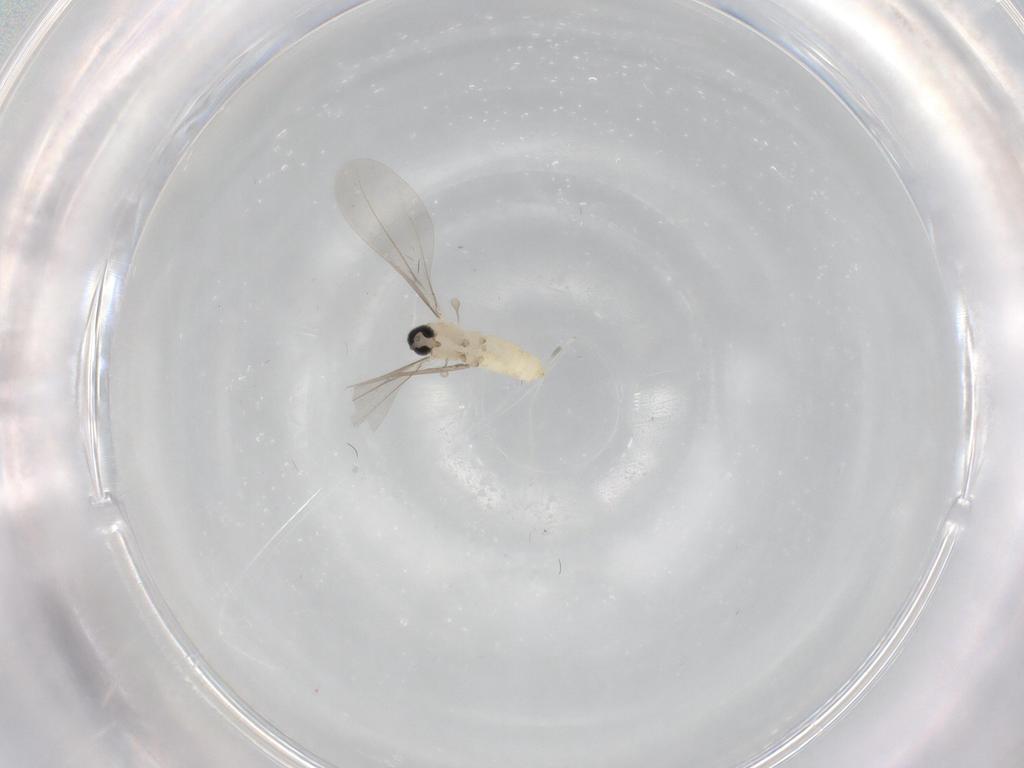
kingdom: Animalia
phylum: Arthropoda
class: Insecta
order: Diptera
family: Cecidomyiidae
